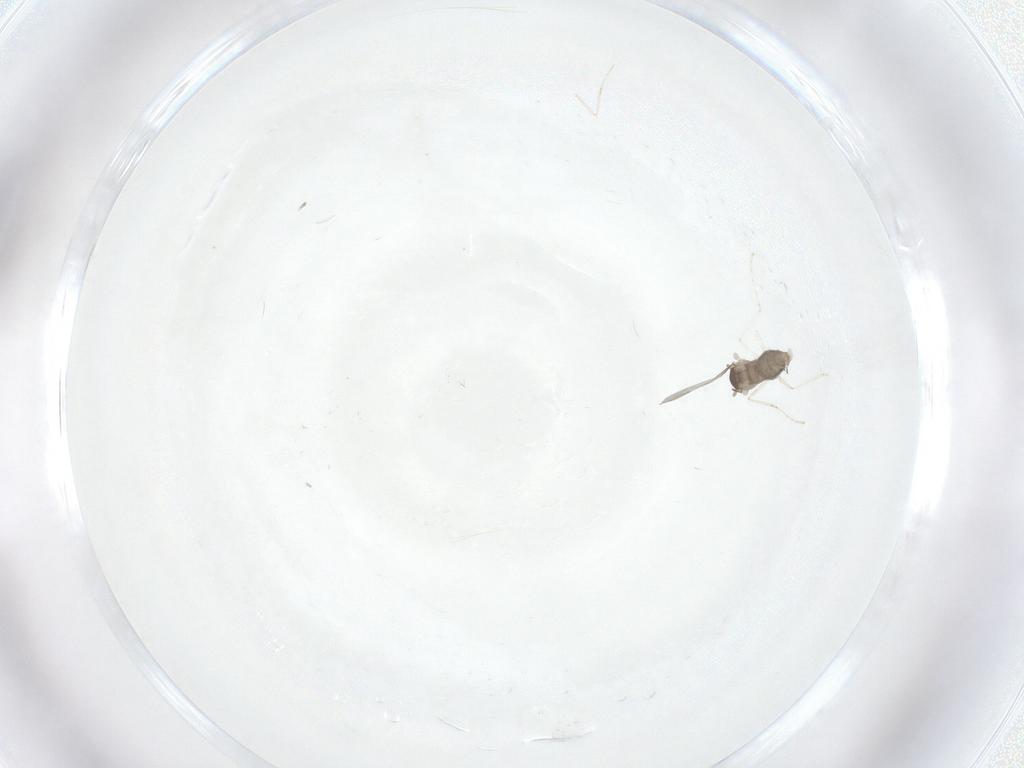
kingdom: Animalia
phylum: Arthropoda
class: Insecta
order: Diptera
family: Cecidomyiidae
